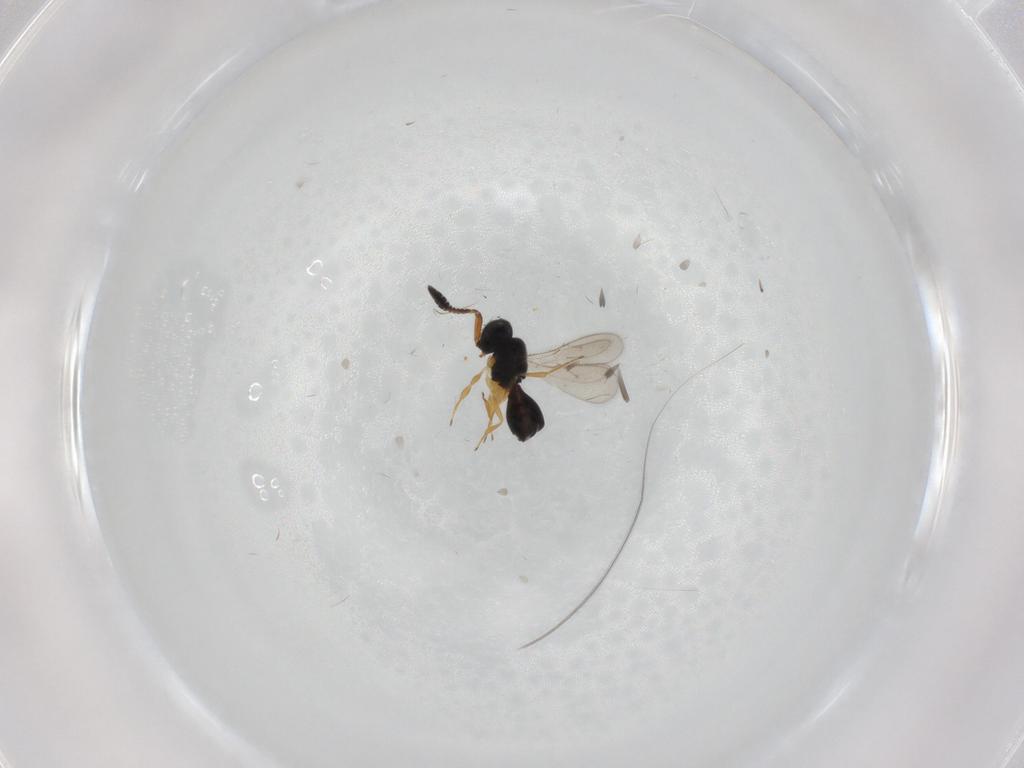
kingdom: Animalia
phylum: Arthropoda
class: Insecta
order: Hymenoptera
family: Scelionidae
